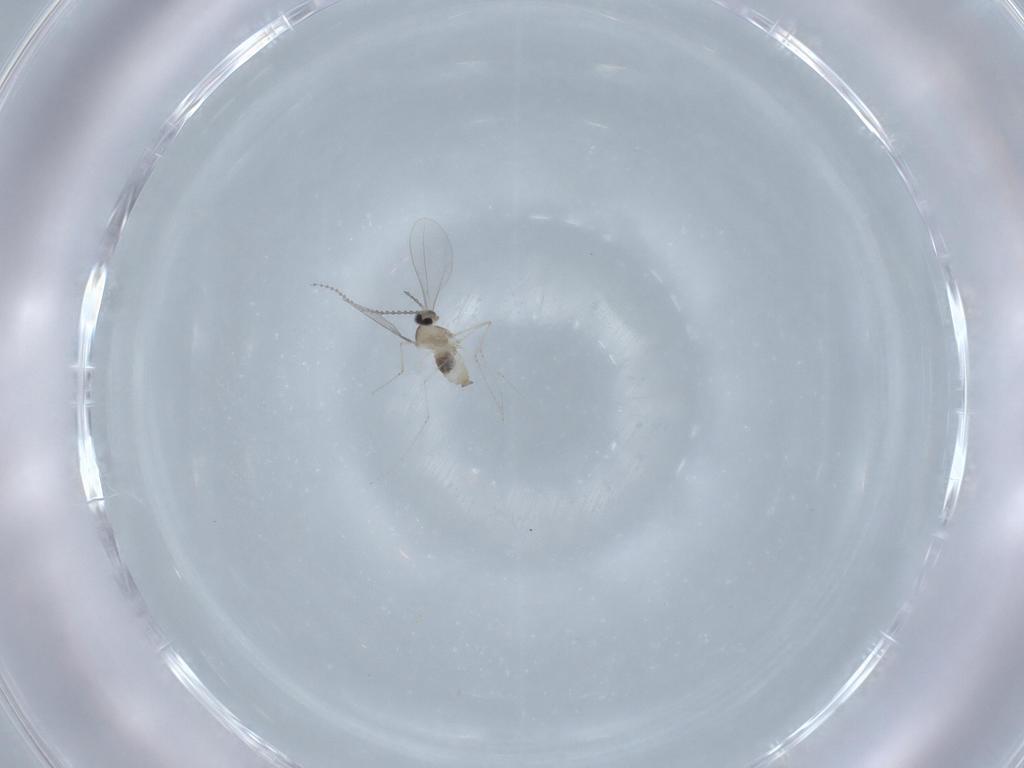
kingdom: Animalia
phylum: Arthropoda
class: Insecta
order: Diptera
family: Cecidomyiidae
